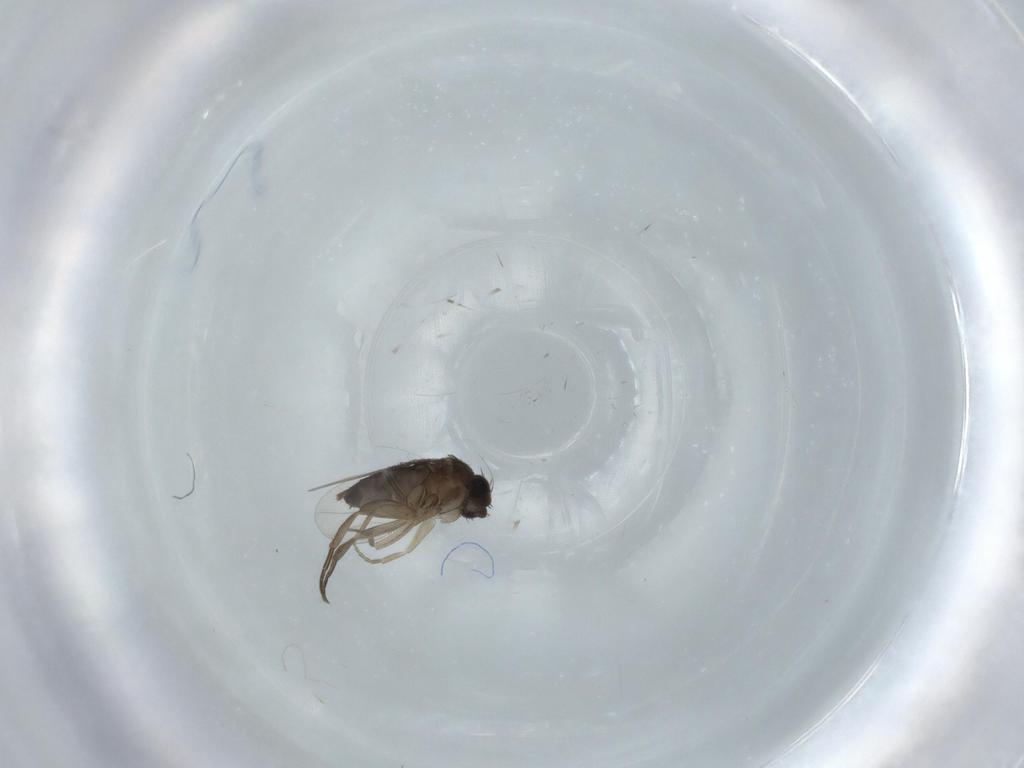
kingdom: Animalia
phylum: Arthropoda
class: Insecta
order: Diptera
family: Phoridae
